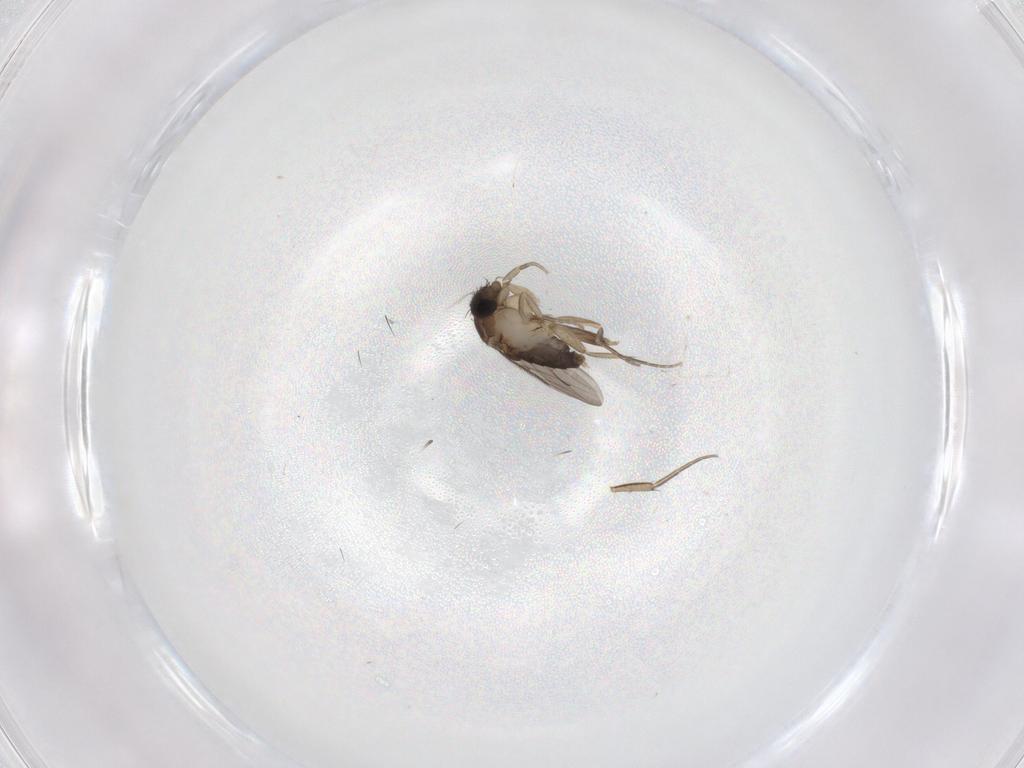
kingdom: Animalia
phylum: Arthropoda
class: Insecta
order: Diptera
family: Phoridae
